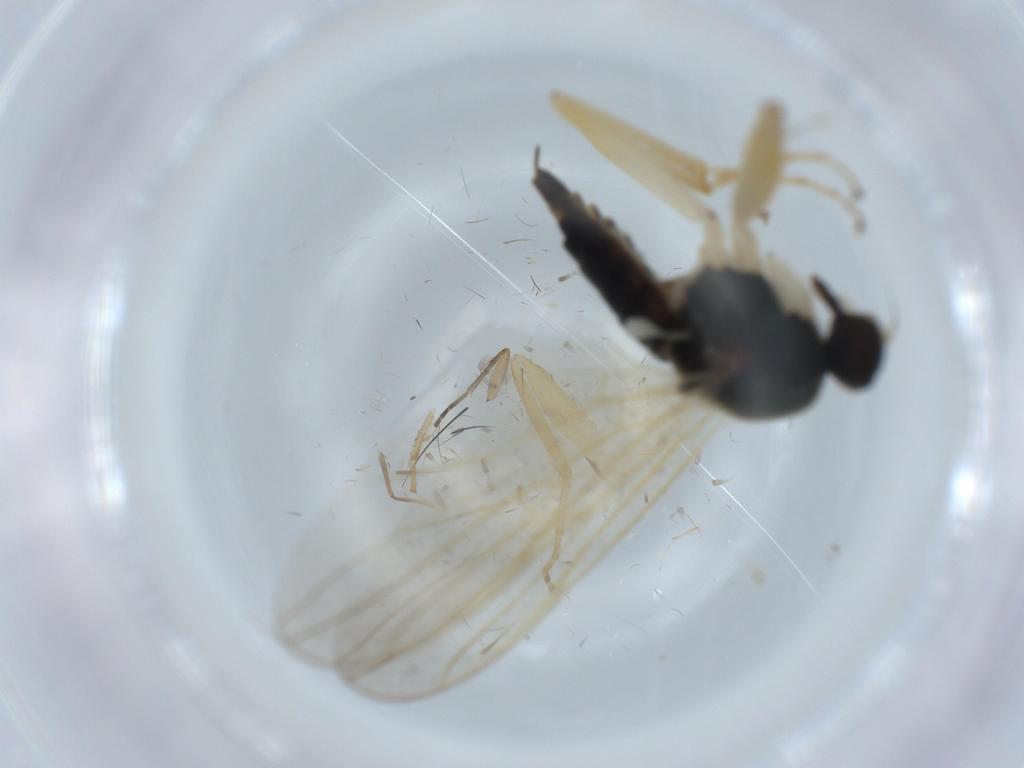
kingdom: Animalia
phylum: Arthropoda
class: Insecta
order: Diptera
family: Hybotidae
